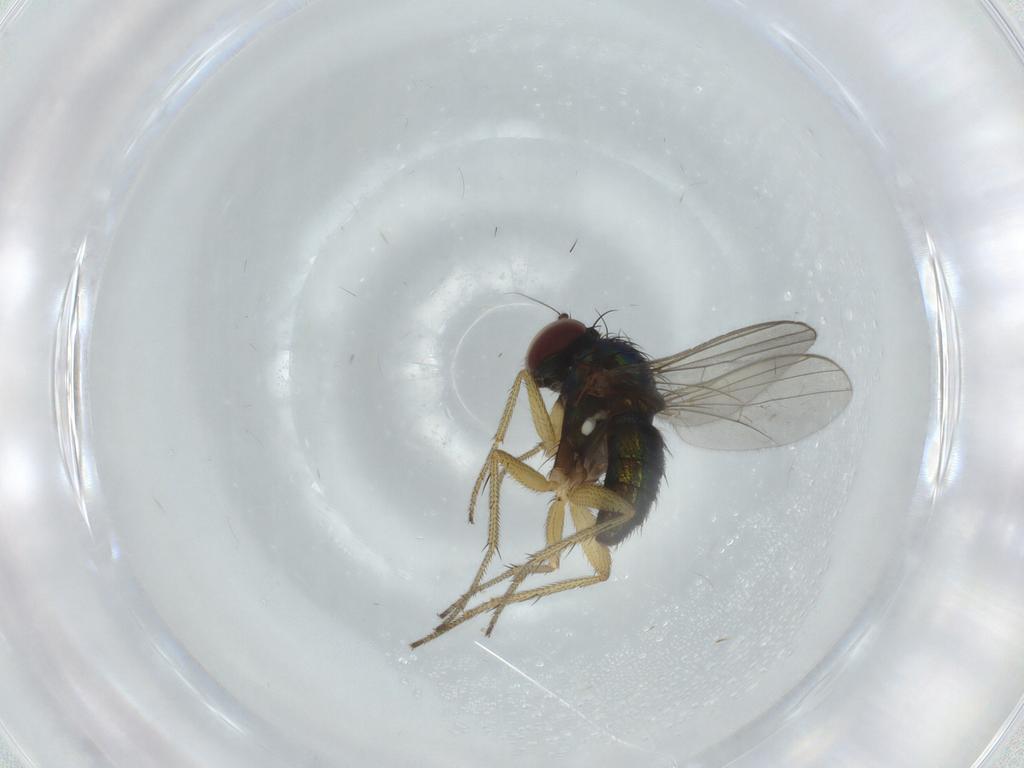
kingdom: Animalia
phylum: Arthropoda
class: Insecta
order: Diptera
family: Dolichopodidae
